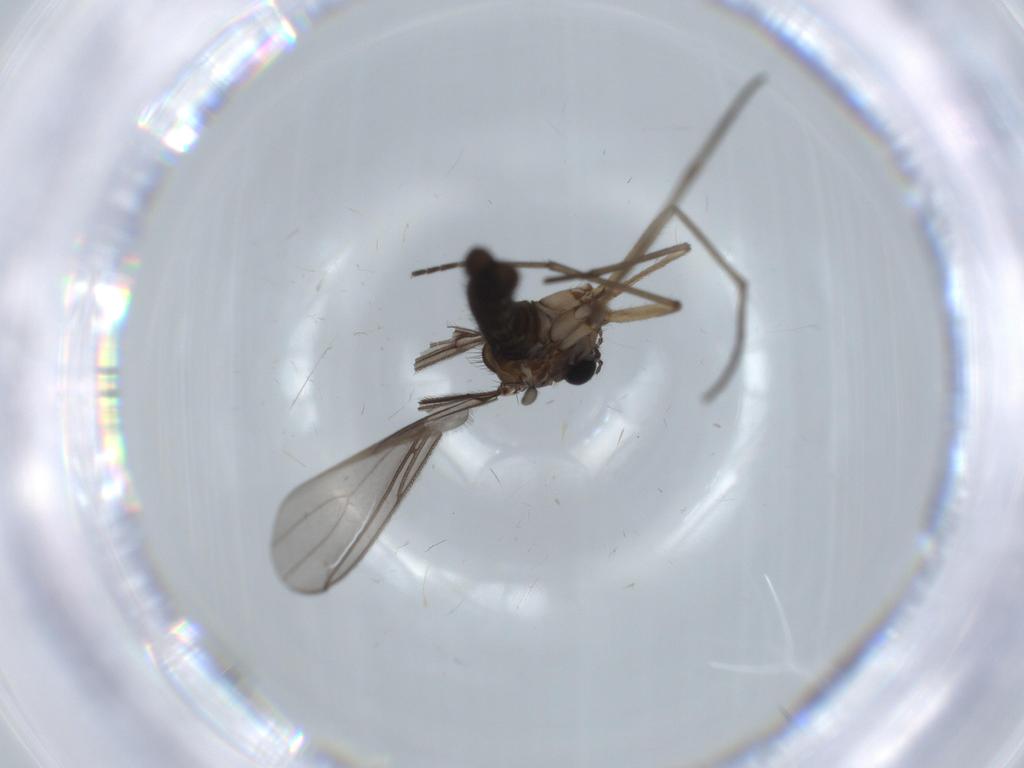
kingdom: Animalia
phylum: Arthropoda
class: Insecta
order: Diptera
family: Sciaridae
